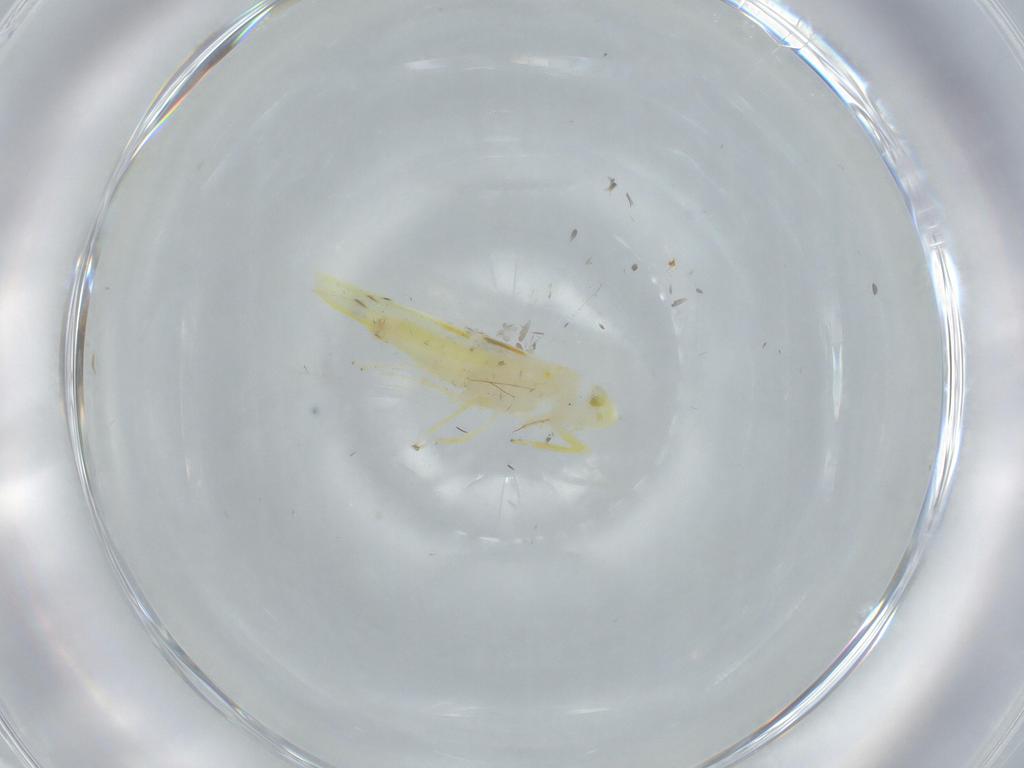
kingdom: Animalia
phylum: Arthropoda
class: Insecta
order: Hemiptera
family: Cicadellidae
